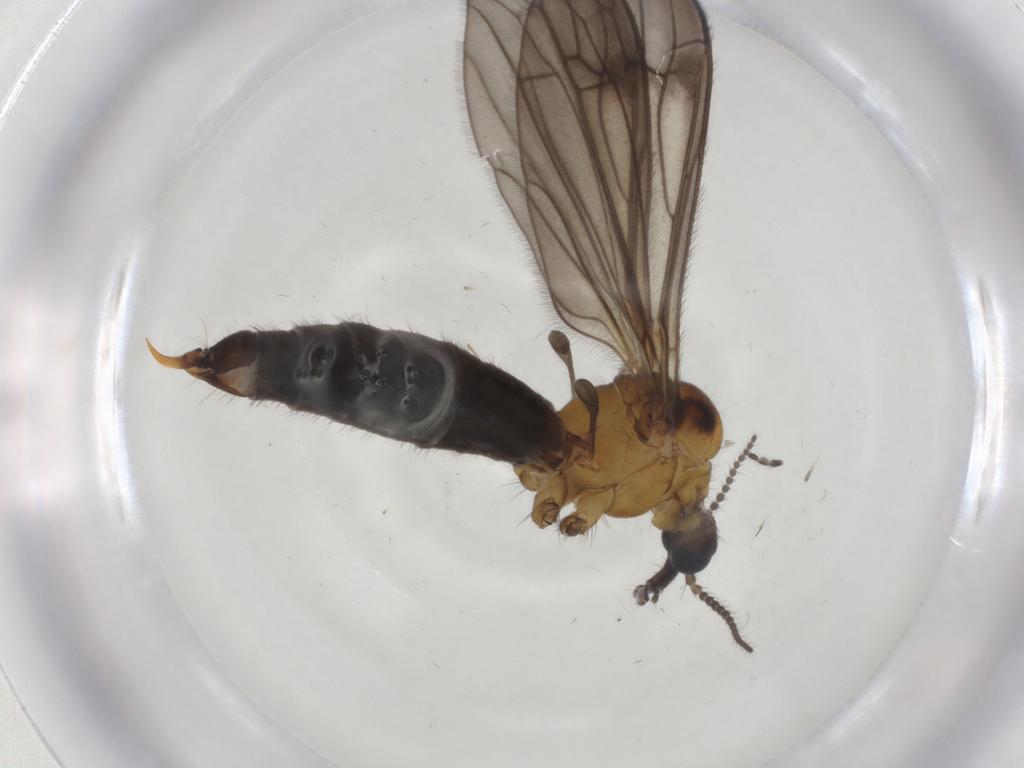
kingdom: Animalia
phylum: Arthropoda
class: Insecta
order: Diptera
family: Limoniidae
